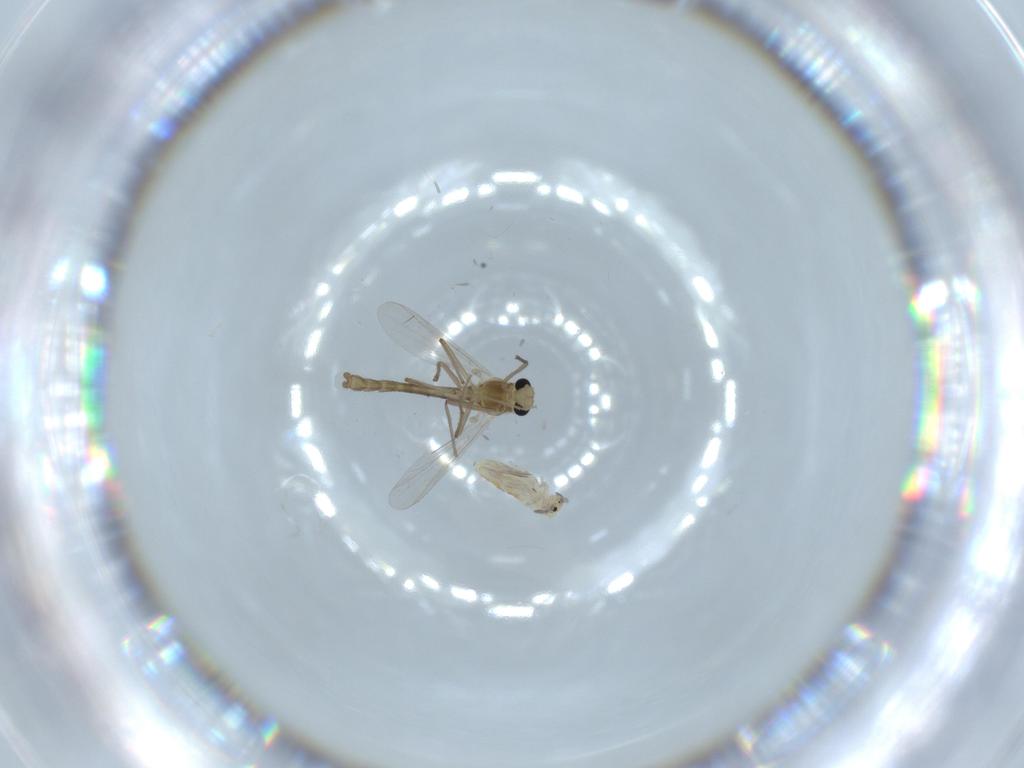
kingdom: Animalia
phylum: Arthropoda
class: Insecta
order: Diptera
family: Chironomidae
